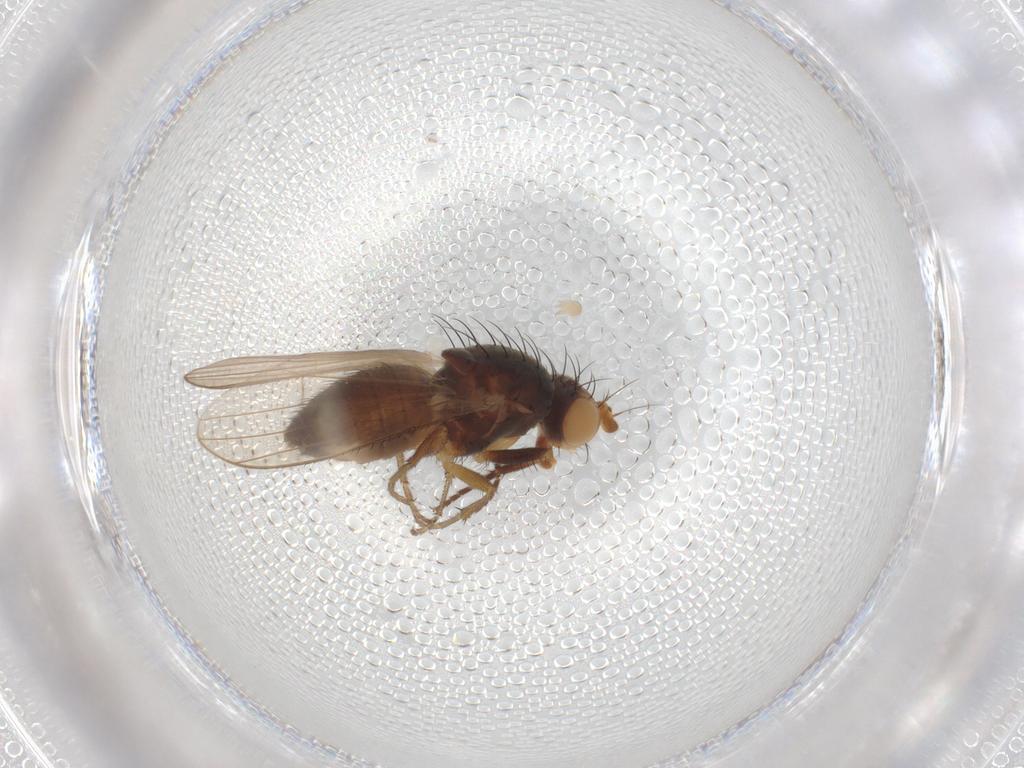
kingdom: Animalia
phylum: Arthropoda
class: Insecta
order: Diptera
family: Heleomyzidae
